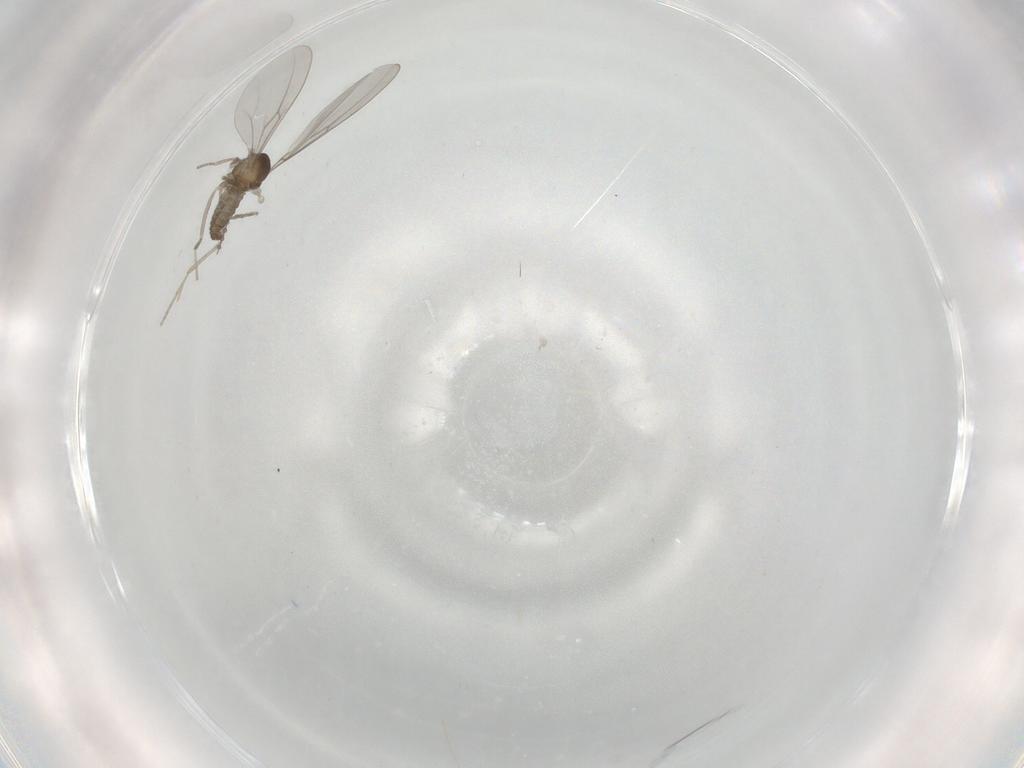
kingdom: Animalia
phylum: Arthropoda
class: Insecta
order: Diptera
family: Cecidomyiidae
